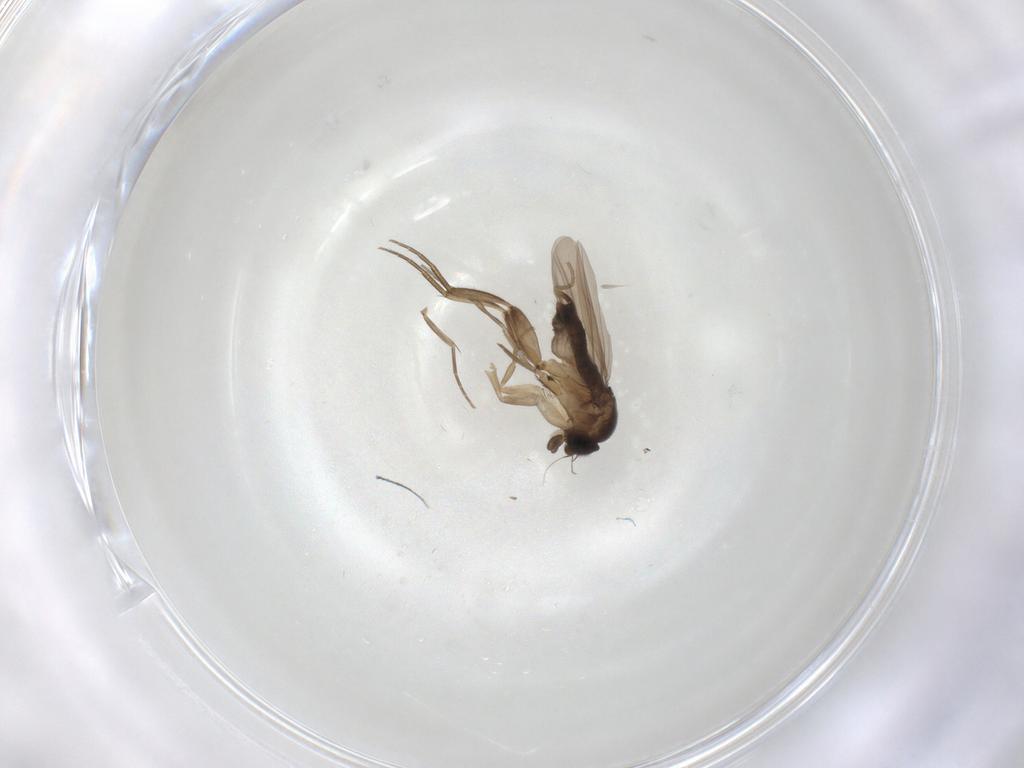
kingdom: Animalia
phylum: Arthropoda
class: Insecta
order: Diptera
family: Phoridae
